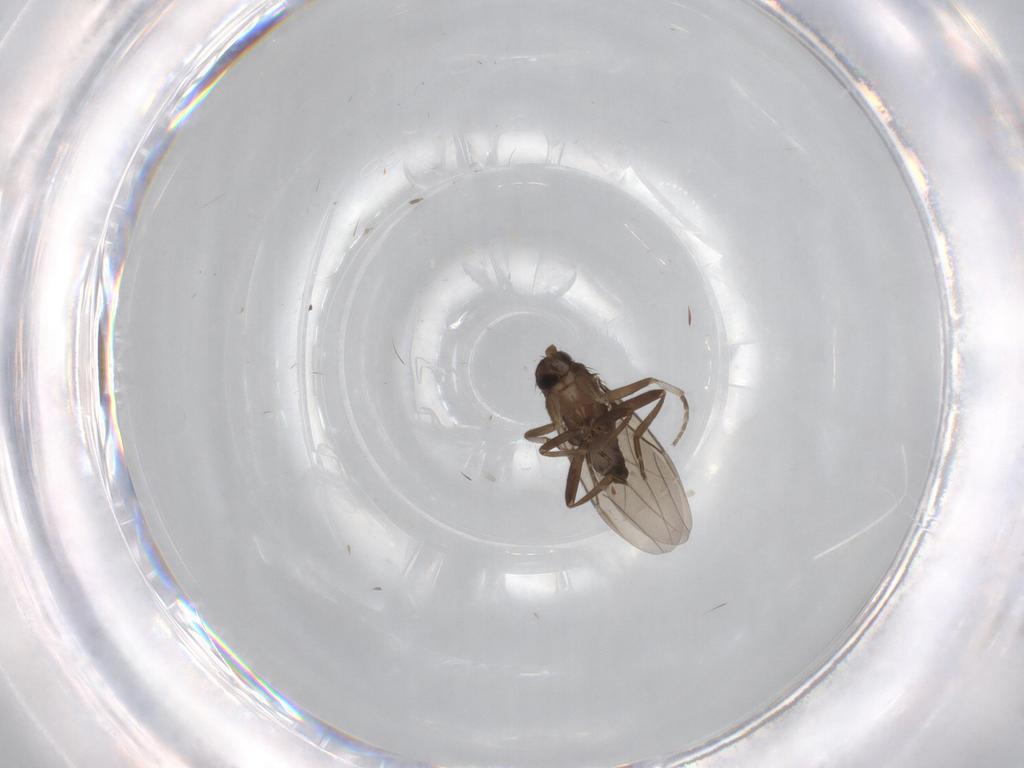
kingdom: Animalia
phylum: Arthropoda
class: Insecta
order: Diptera
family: Phoridae
